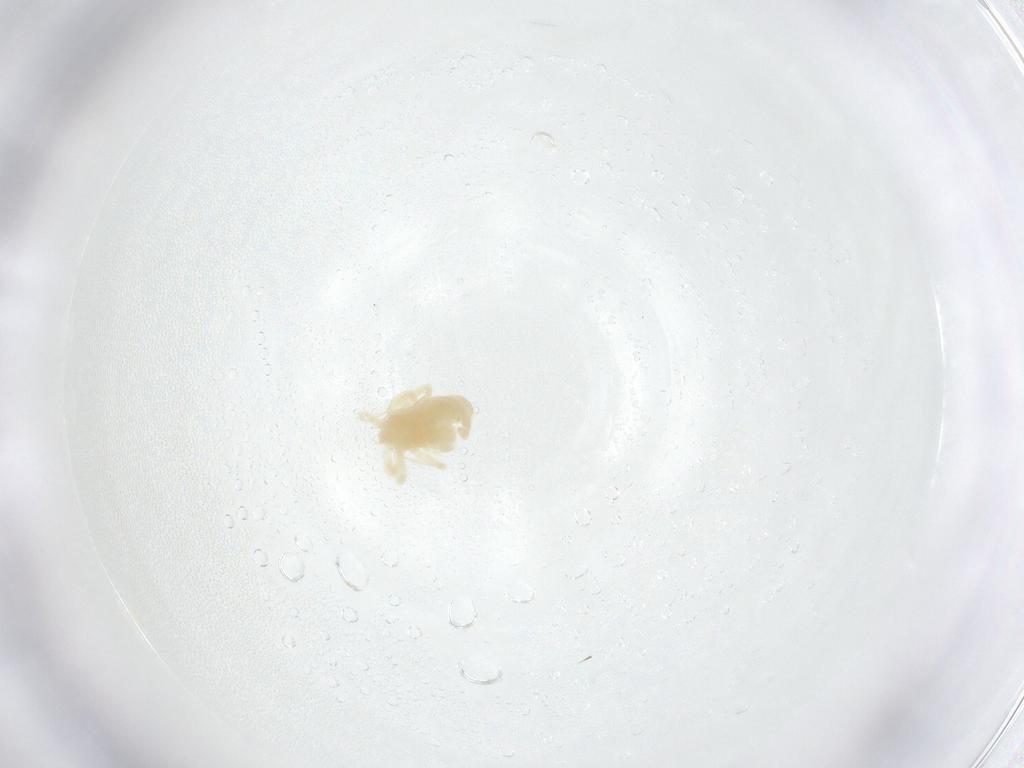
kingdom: Animalia
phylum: Arthropoda
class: Arachnida
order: Trombidiformes
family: Anystidae
